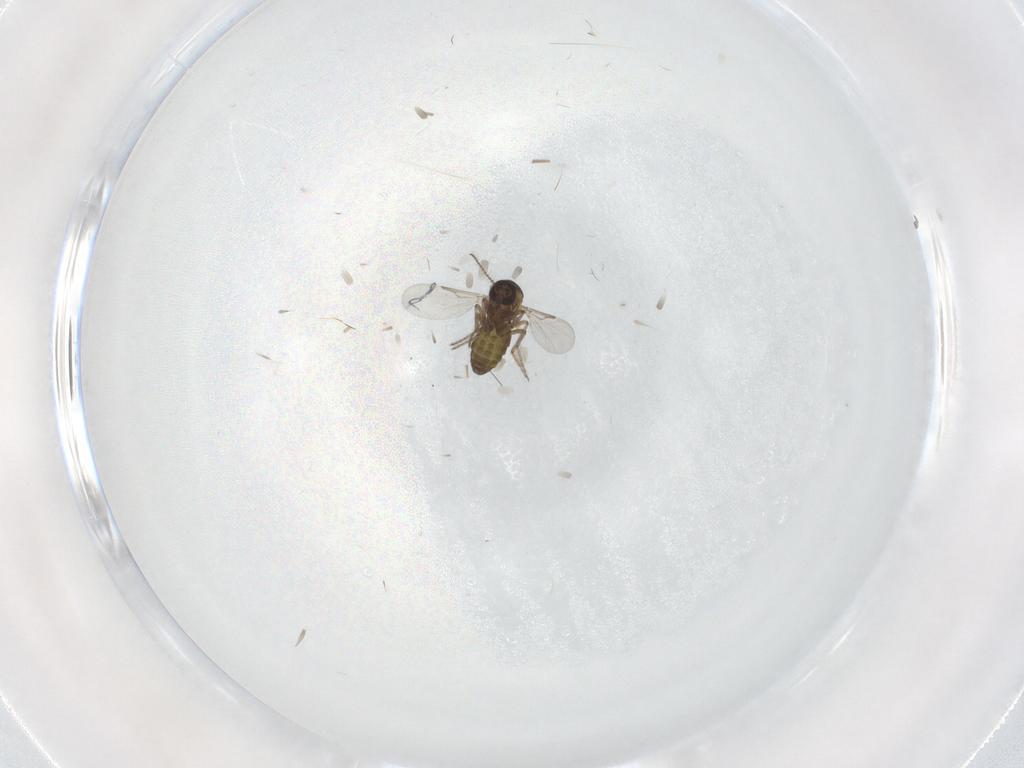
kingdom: Animalia
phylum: Arthropoda
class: Insecta
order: Diptera
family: Ceratopogonidae
